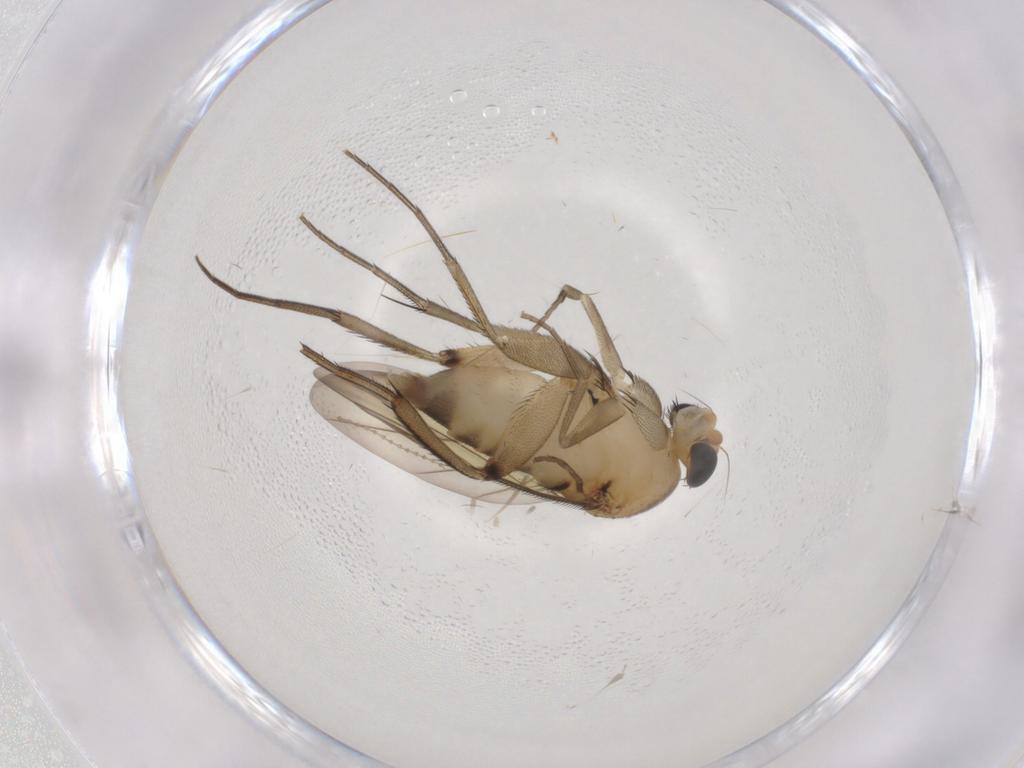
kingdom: Animalia
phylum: Arthropoda
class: Insecta
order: Diptera
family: Phoridae
